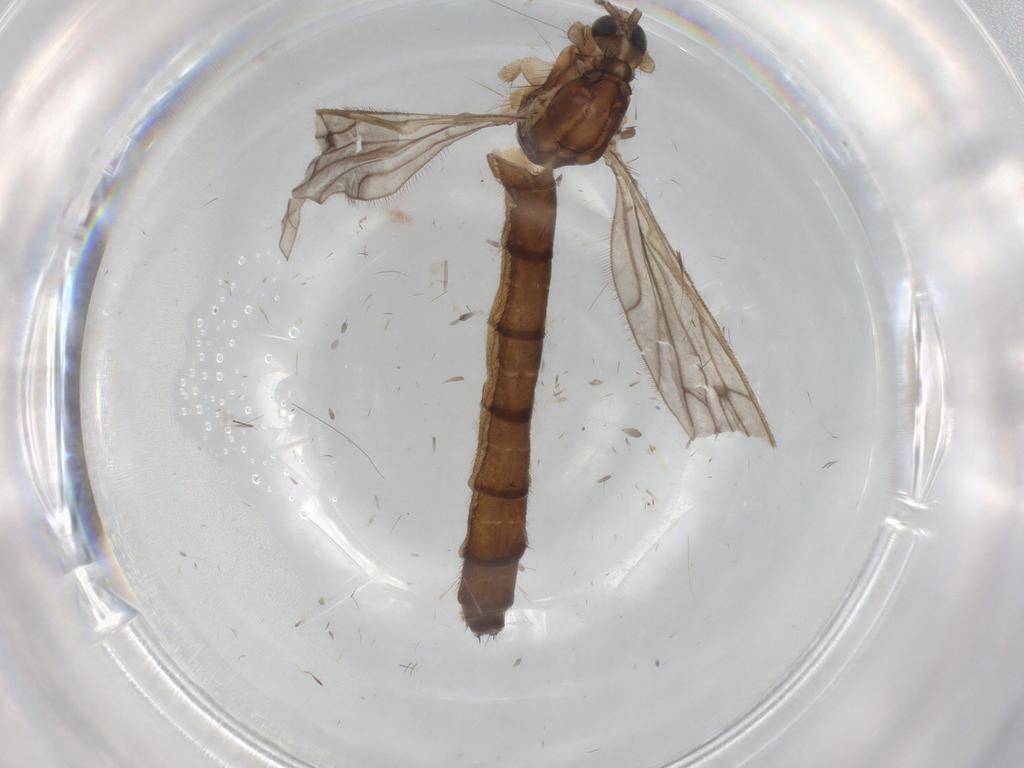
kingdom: Animalia
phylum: Arthropoda
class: Insecta
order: Diptera
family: Limoniidae
